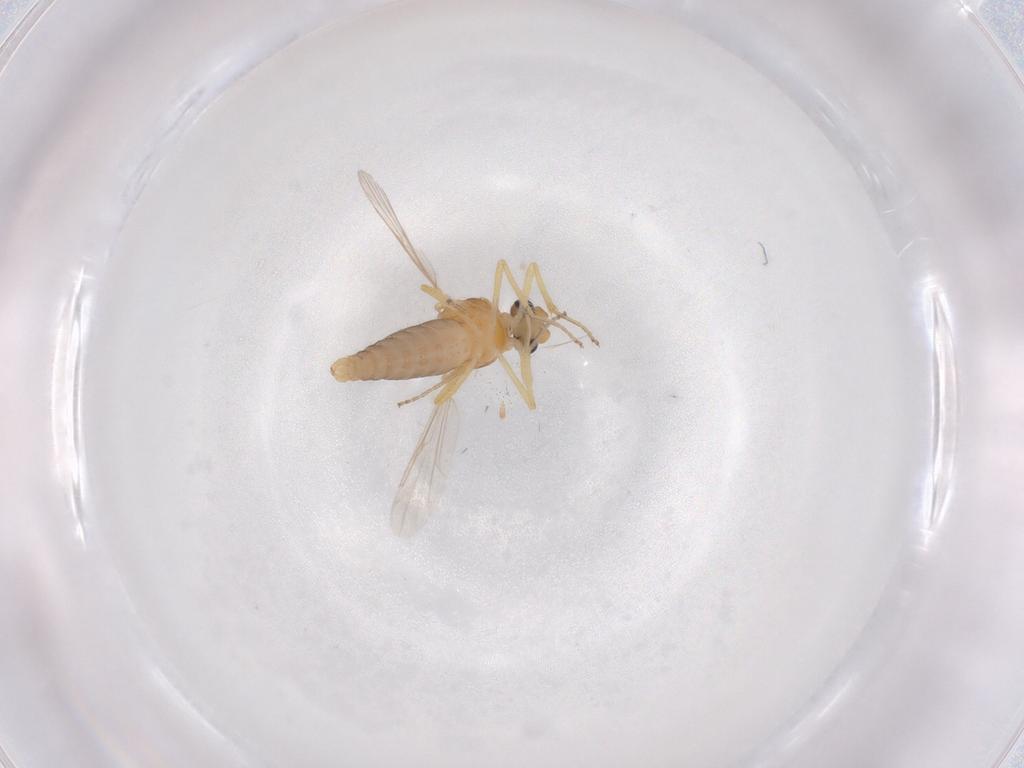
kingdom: Animalia
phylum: Arthropoda
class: Insecta
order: Diptera
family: Ceratopogonidae
